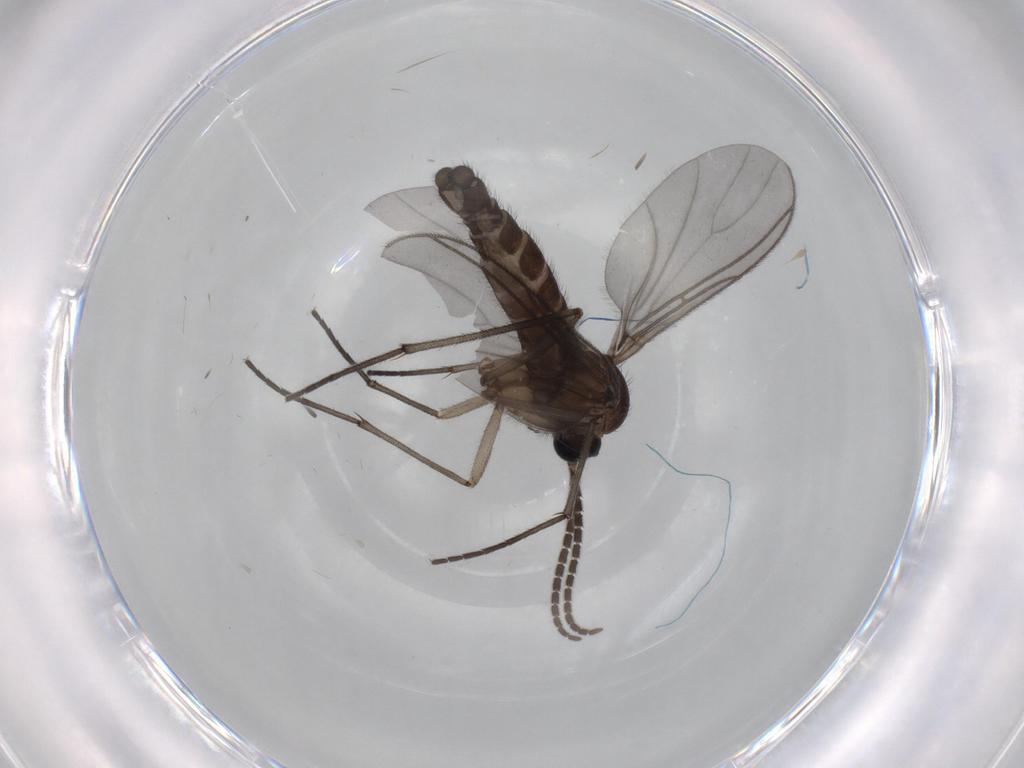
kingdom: Animalia
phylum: Arthropoda
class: Insecta
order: Diptera
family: Sciaridae
